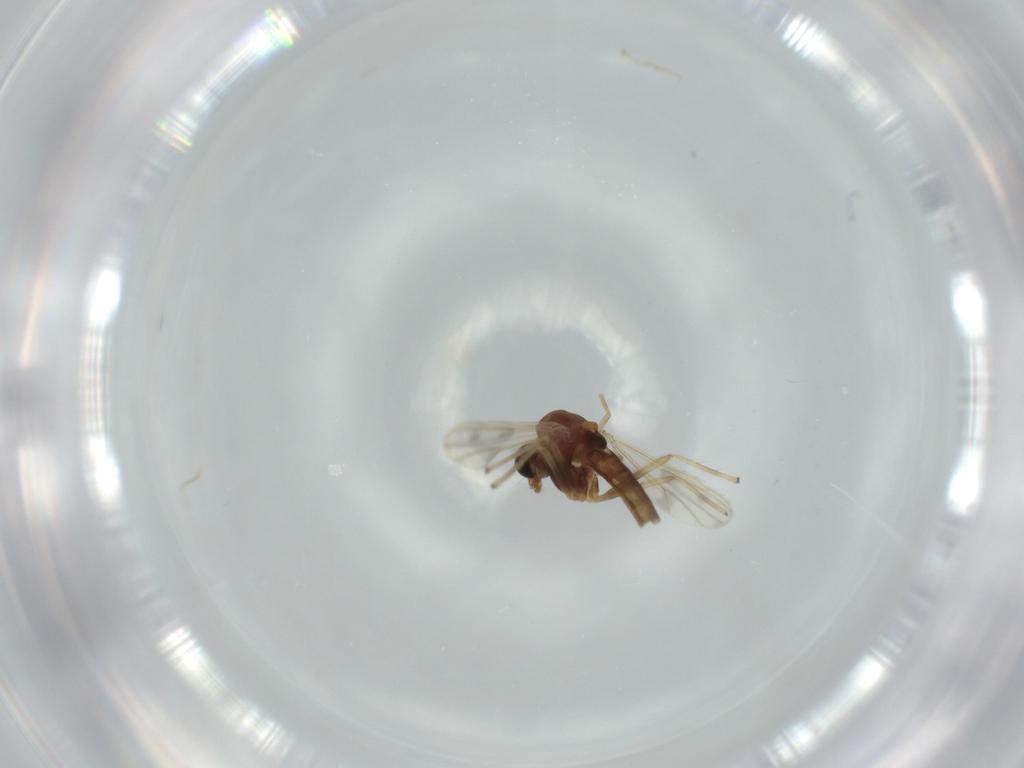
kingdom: Animalia
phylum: Arthropoda
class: Insecta
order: Diptera
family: Chironomidae
